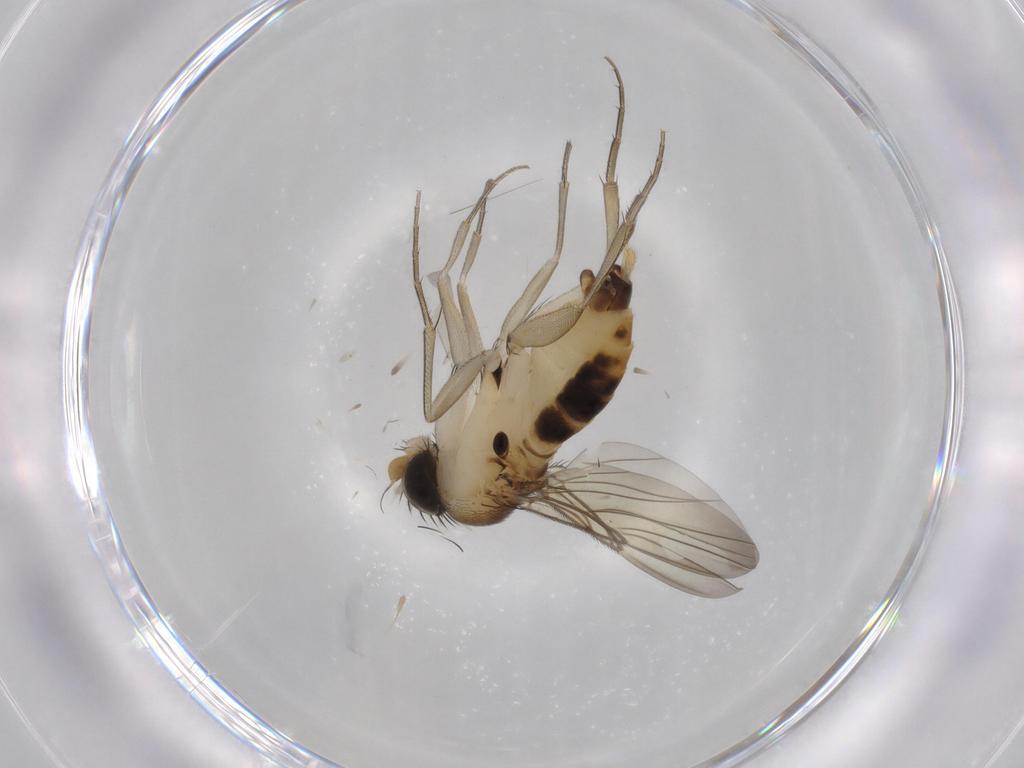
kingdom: Animalia
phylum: Arthropoda
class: Insecta
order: Diptera
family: Phoridae
